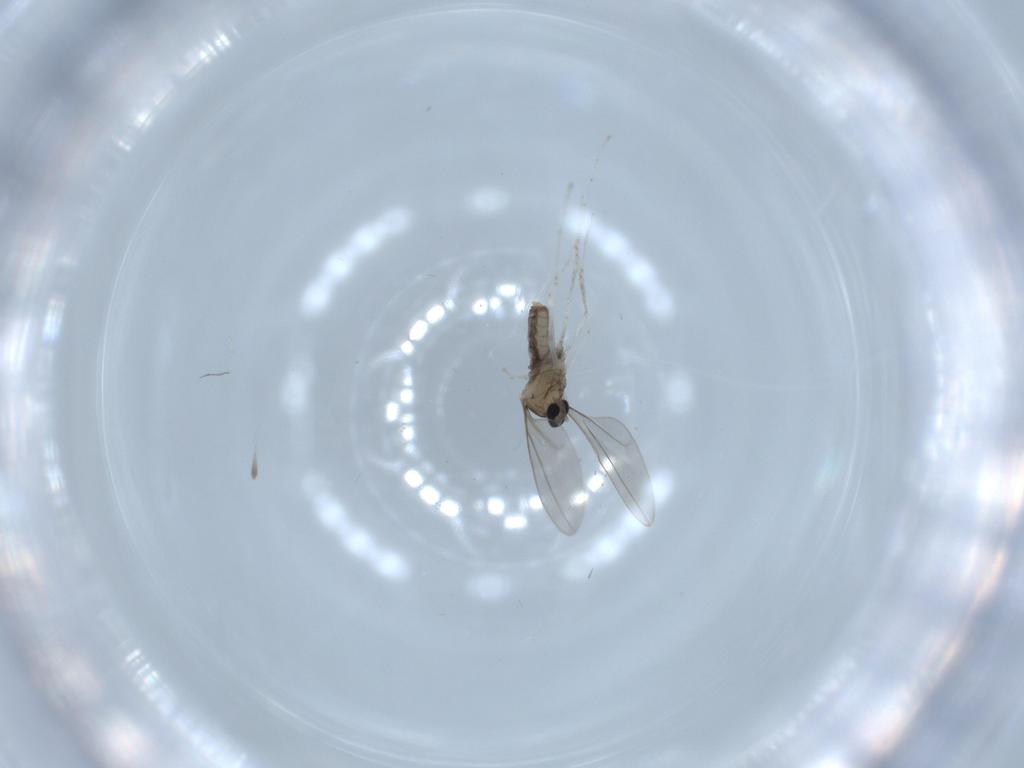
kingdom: Animalia
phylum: Arthropoda
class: Insecta
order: Diptera
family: Cecidomyiidae
